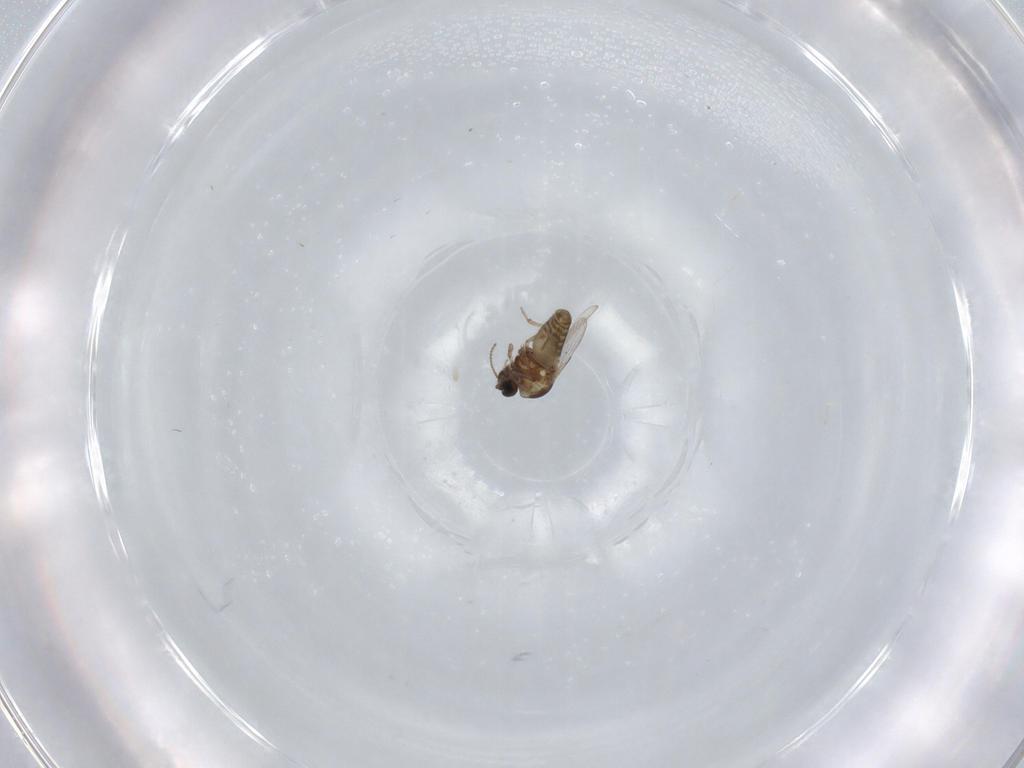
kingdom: Animalia
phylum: Arthropoda
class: Insecta
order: Diptera
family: Ceratopogonidae
